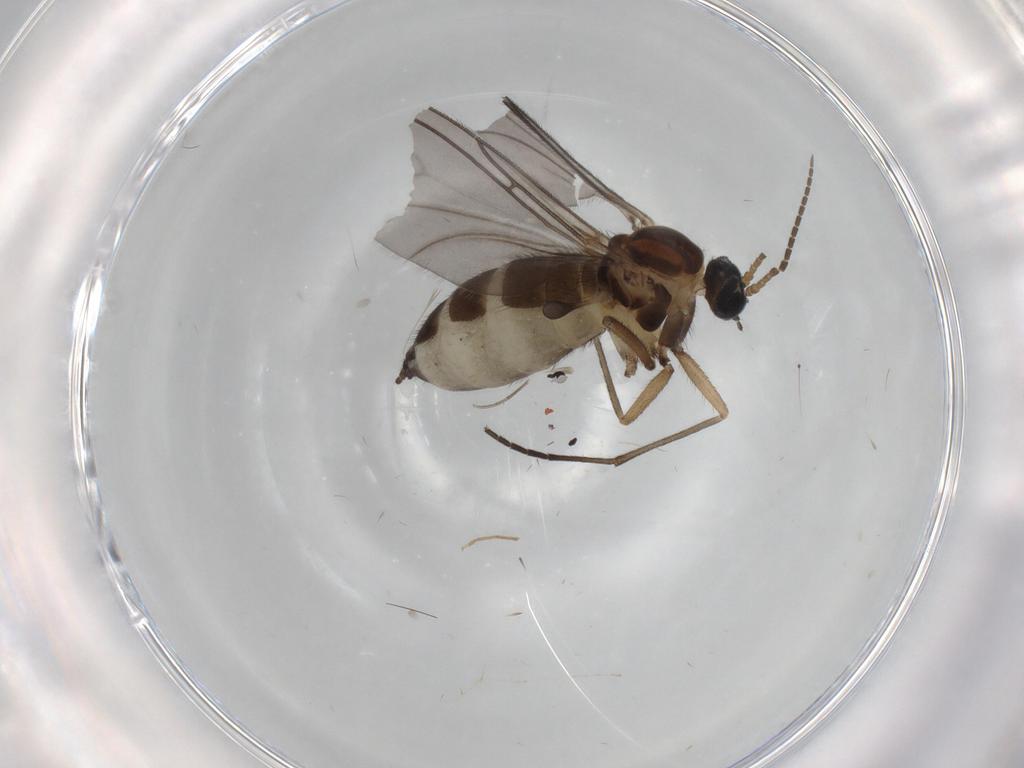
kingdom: Animalia
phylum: Arthropoda
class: Insecta
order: Diptera
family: Sciaridae
